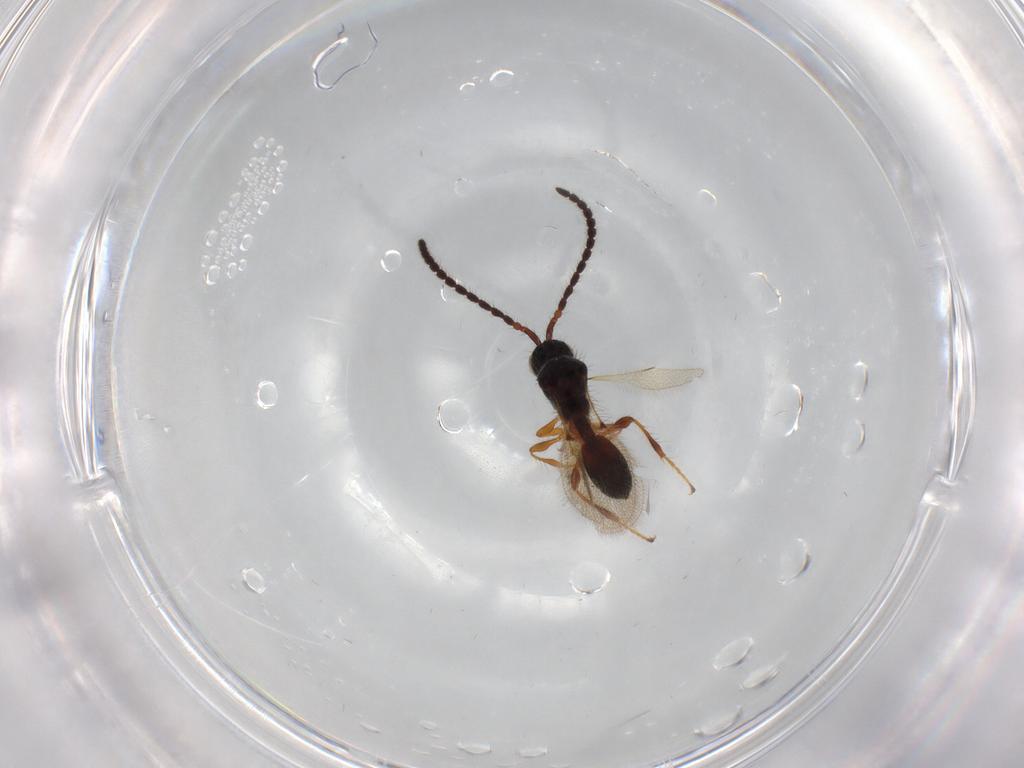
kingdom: Animalia
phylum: Arthropoda
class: Insecta
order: Hymenoptera
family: Diapriidae
